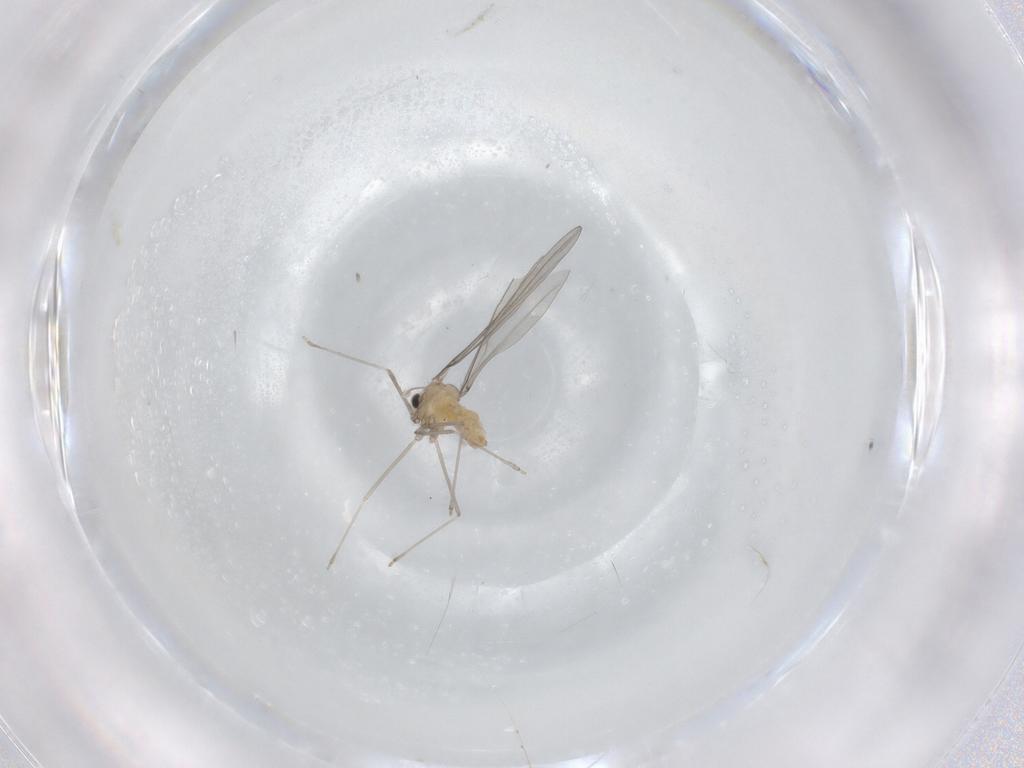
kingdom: Animalia
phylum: Arthropoda
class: Insecta
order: Diptera
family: Cecidomyiidae
